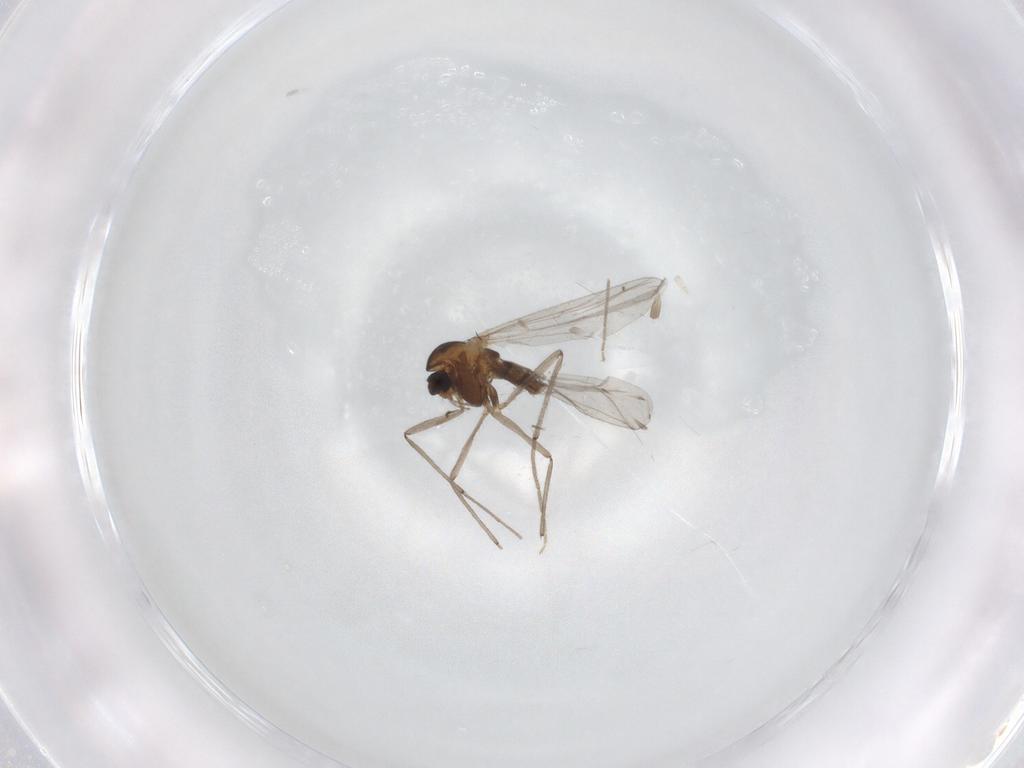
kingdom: Animalia
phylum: Arthropoda
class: Insecta
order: Diptera
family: Chironomidae
